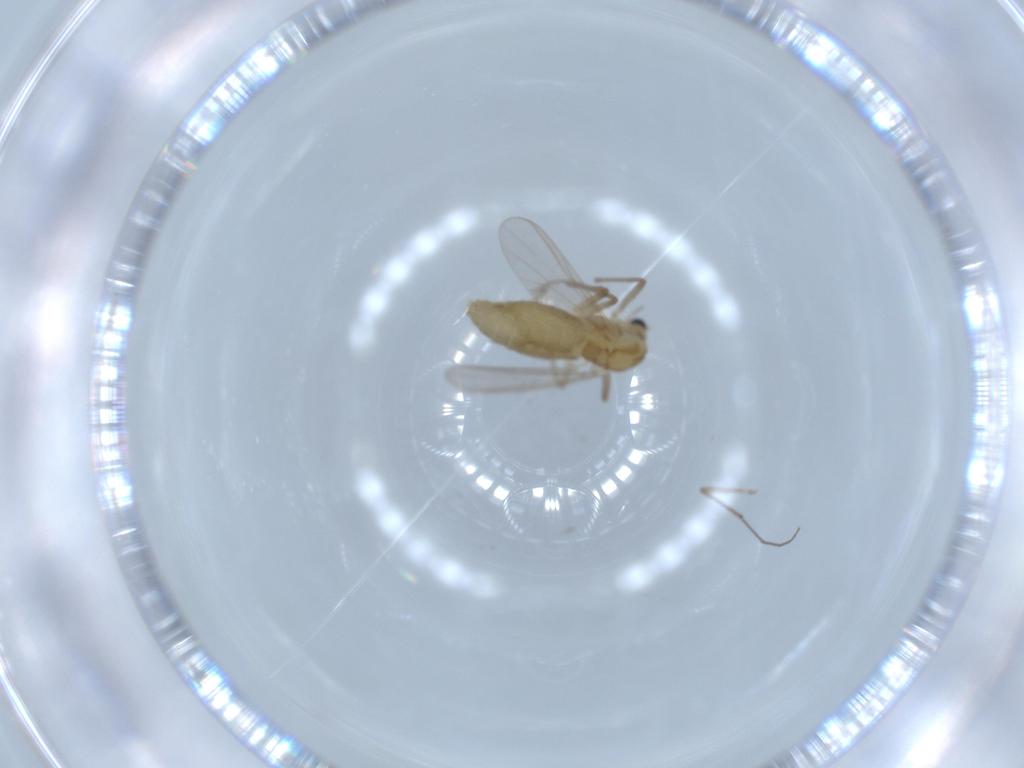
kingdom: Animalia
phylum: Arthropoda
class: Insecta
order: Diptera
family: Chironomidae
